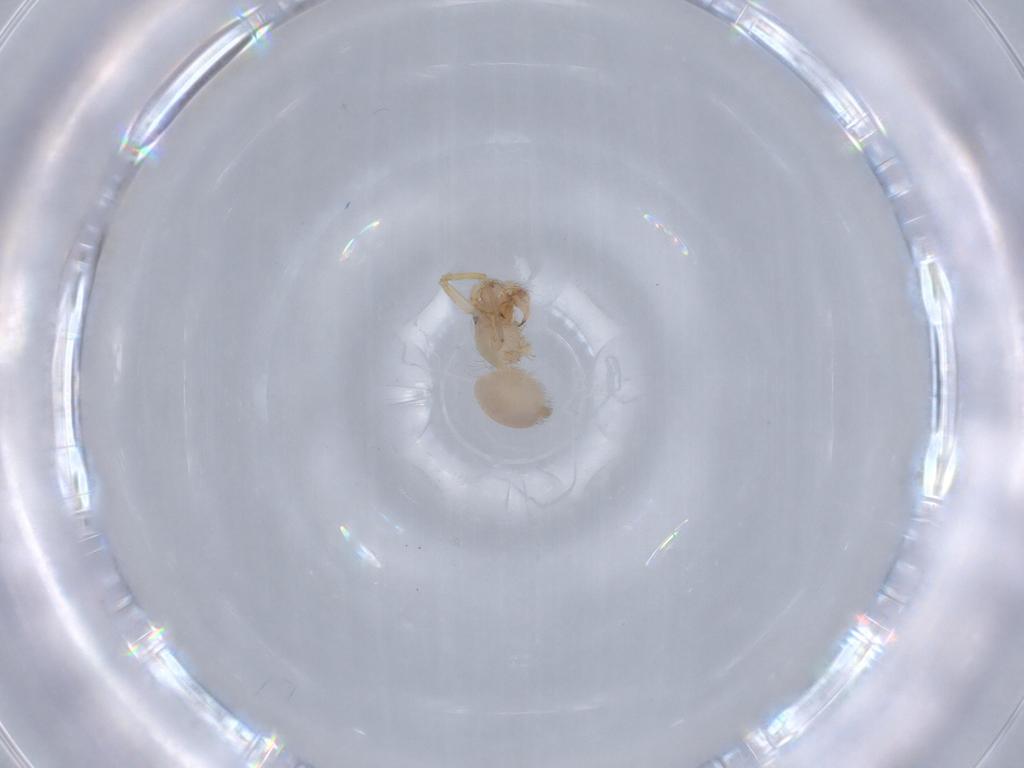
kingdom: Animalia
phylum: Arthropoda
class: Arachnida
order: Araneae
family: Oonopidae
